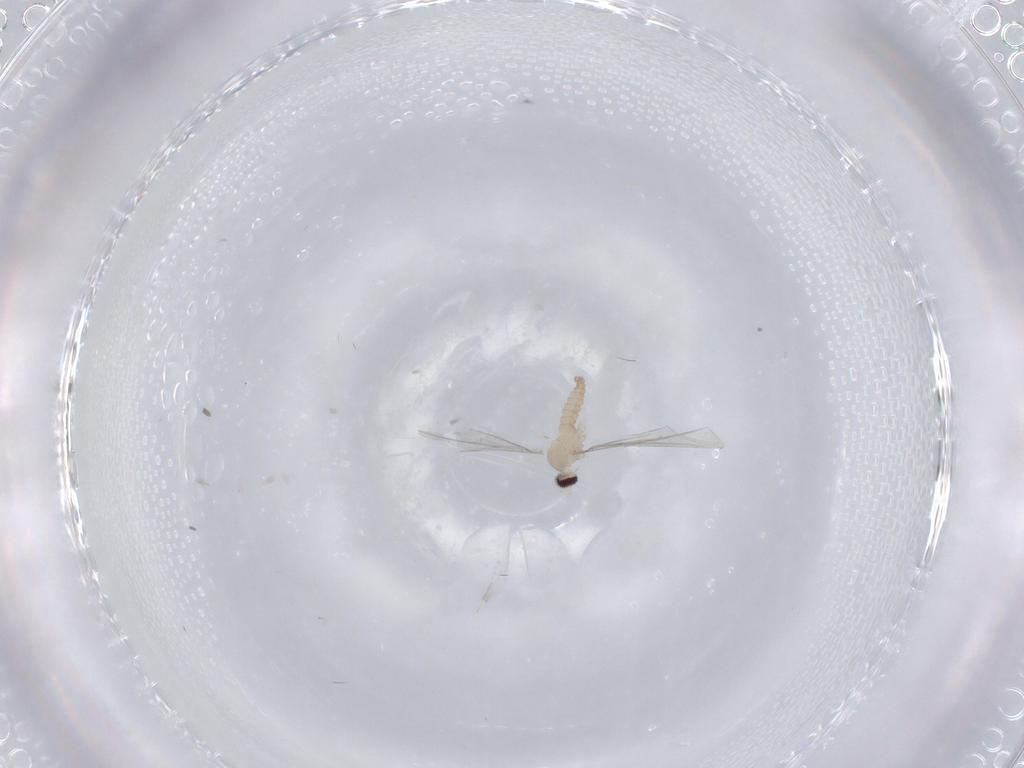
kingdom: Animalia
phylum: Arthropoda
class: Insecta
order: Diptera
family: Cecidomyiidae
